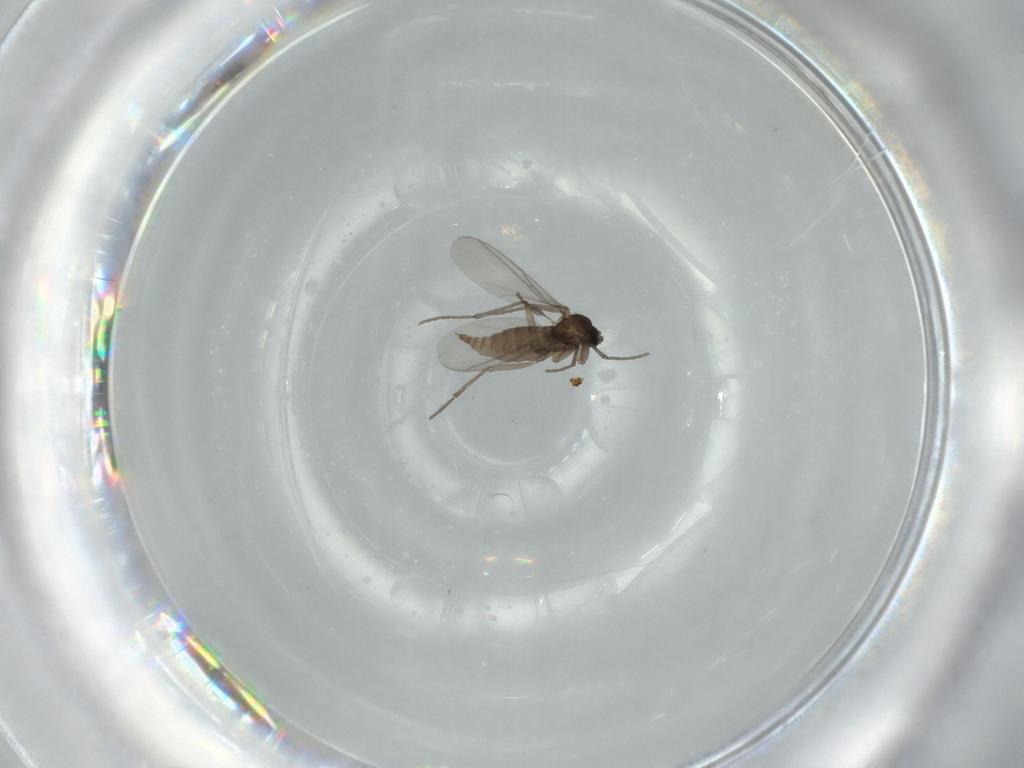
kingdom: Animalia
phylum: Arthropoda
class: Insecta
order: Diptera
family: Sciaridae
